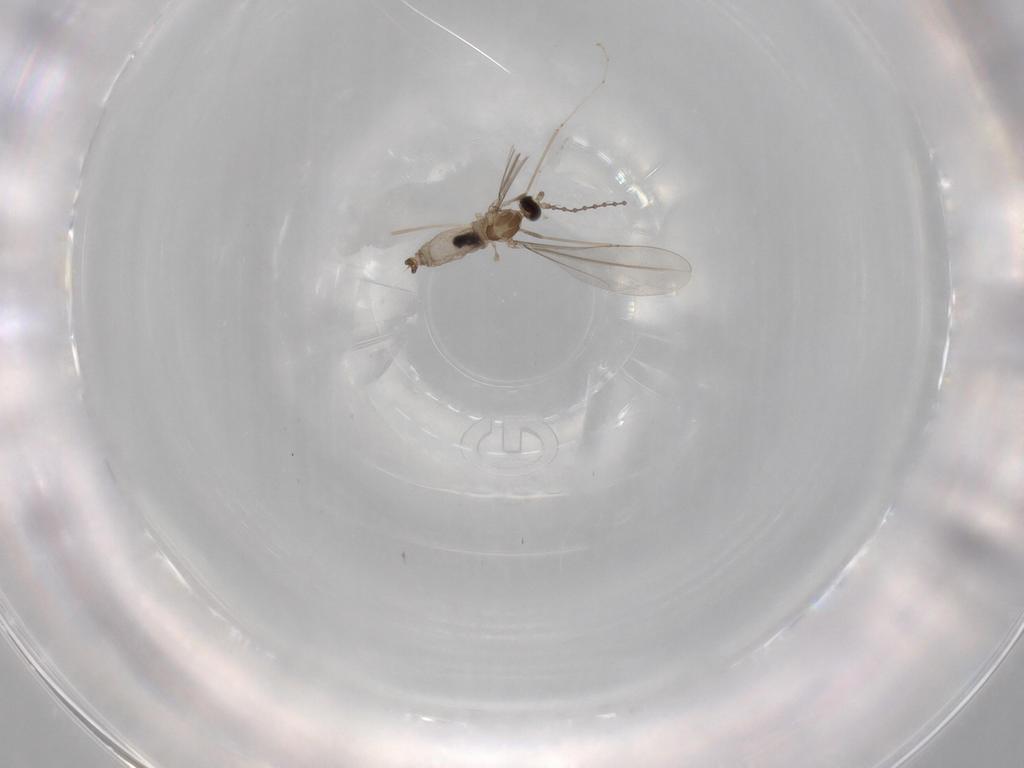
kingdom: Animalia
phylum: Arthropoda
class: Insecta
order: Diptera
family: Cecidomyiidae
